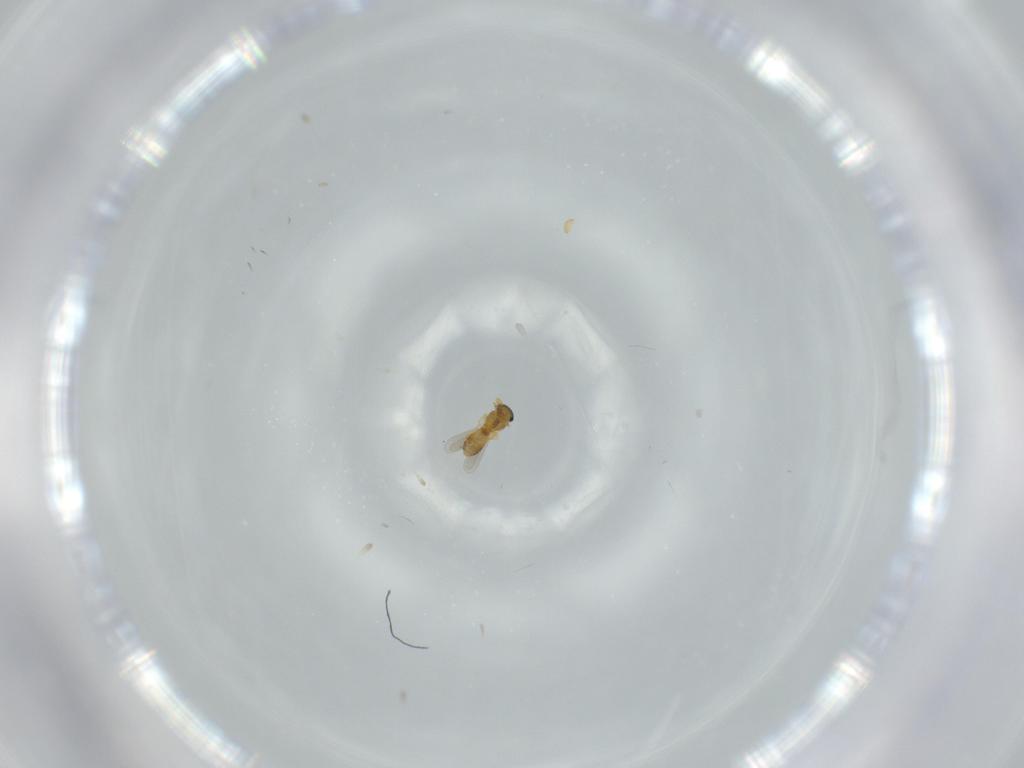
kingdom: Animalia
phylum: Arthropoda
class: Insecta
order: Hymenoptera
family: Platygastridae
